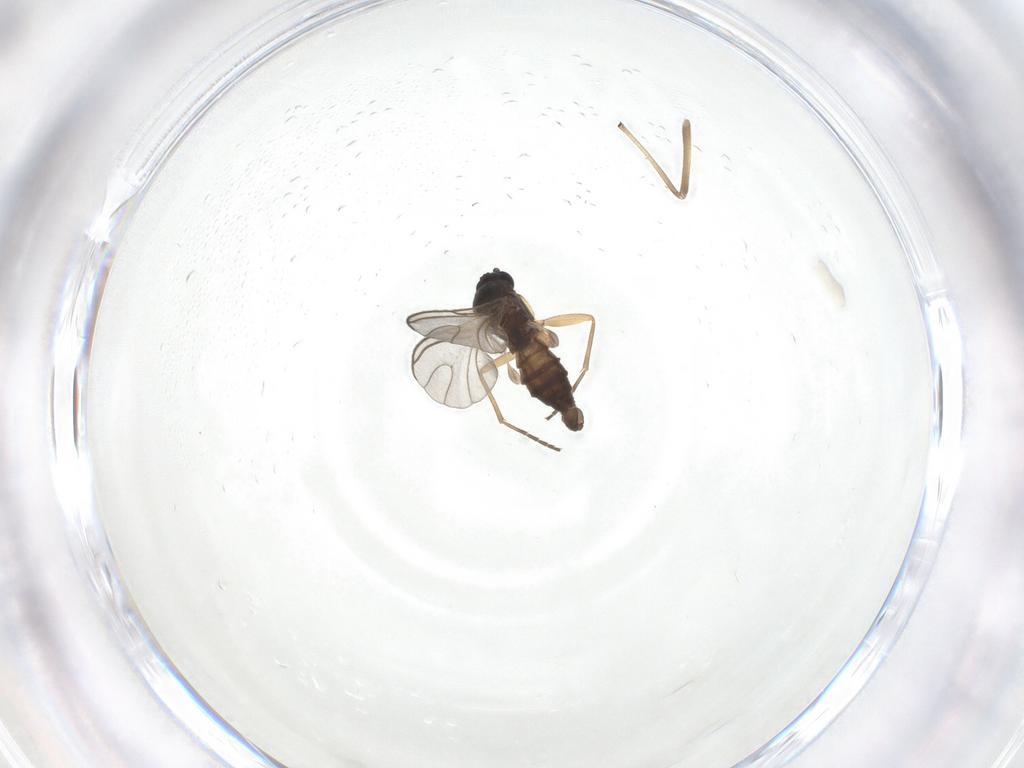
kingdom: Animalia
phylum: Arthropoda
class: Insecta
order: Diptera
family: Chironomidae
